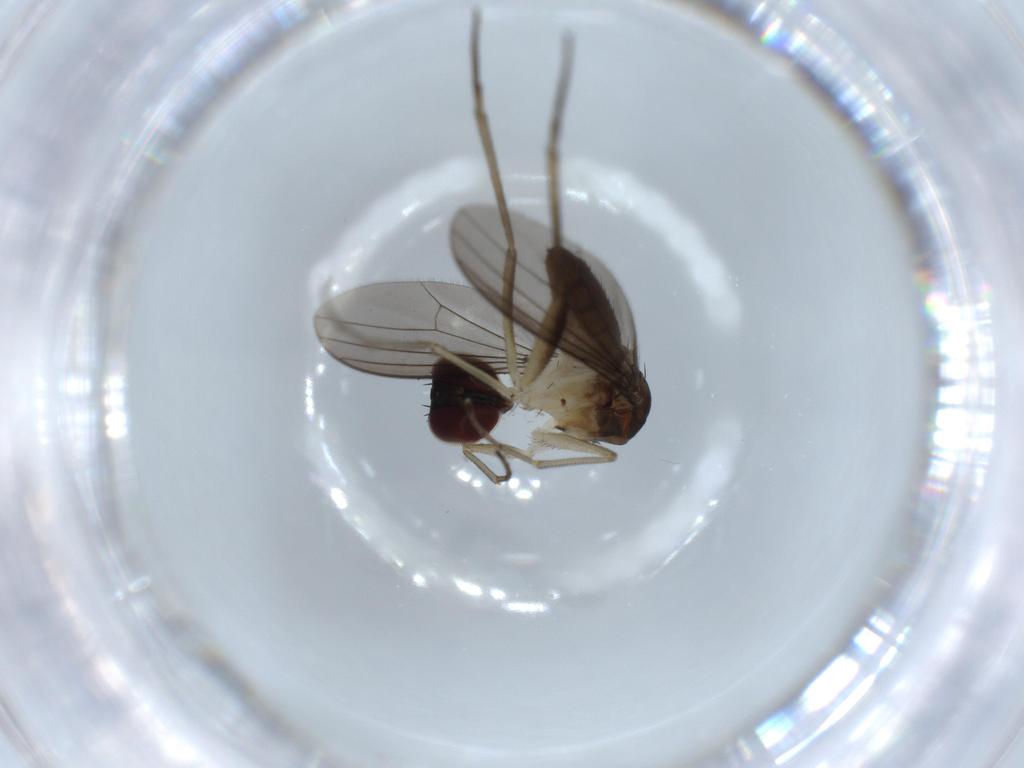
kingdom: Animalia
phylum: Arthropoda
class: Insecta
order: Diptera
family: Dolichopodidae
